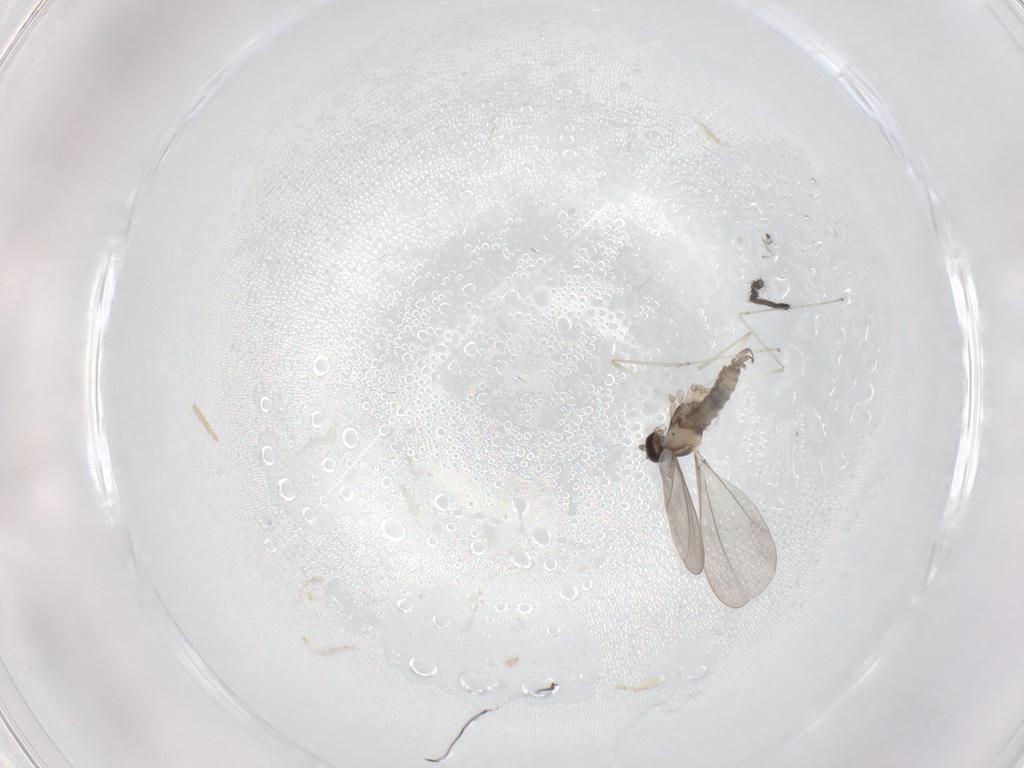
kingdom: Animalia
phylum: Arthropoda
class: Insecta
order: Diptera
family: Cecidomyiidae
